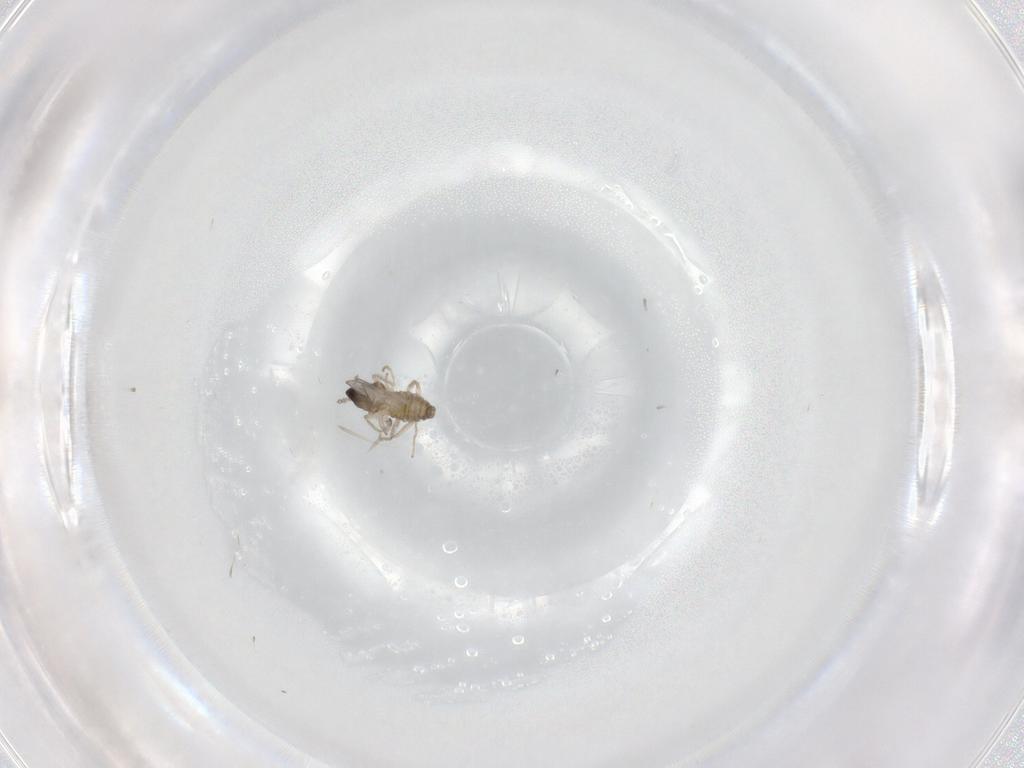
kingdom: Animalia
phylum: Arthropoda
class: Insecta
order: Diptera
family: Cecidomyiidae
